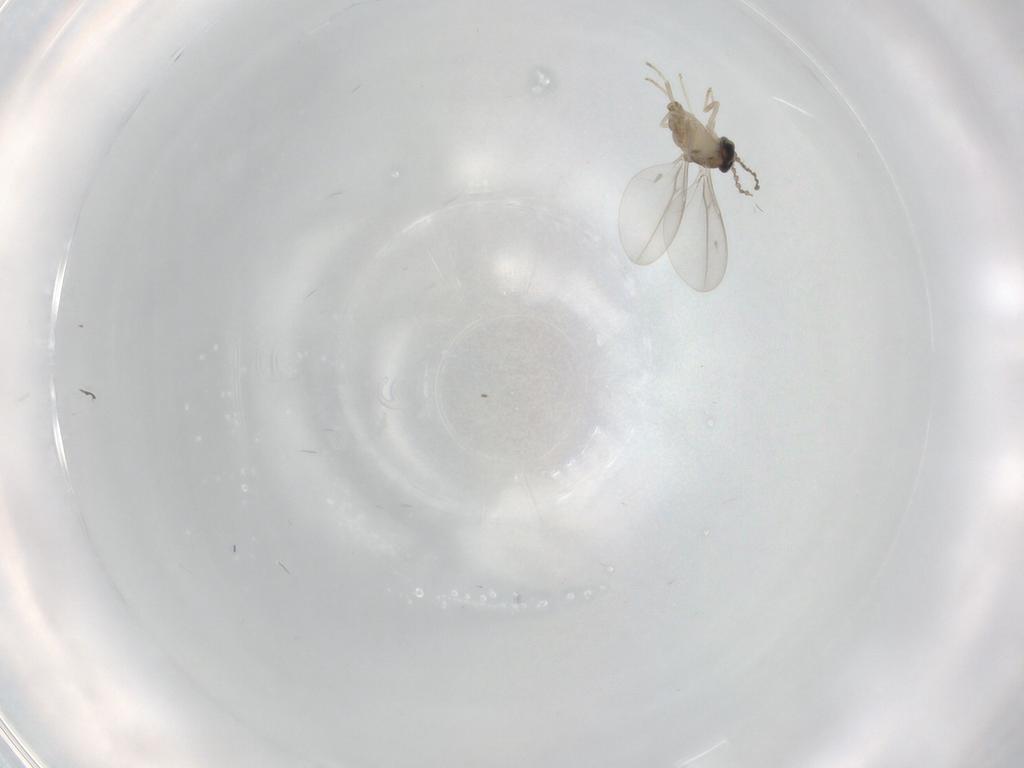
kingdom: Animalia
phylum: Arthropoda
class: Insecta
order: Diptera
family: Cecidomyiidae
